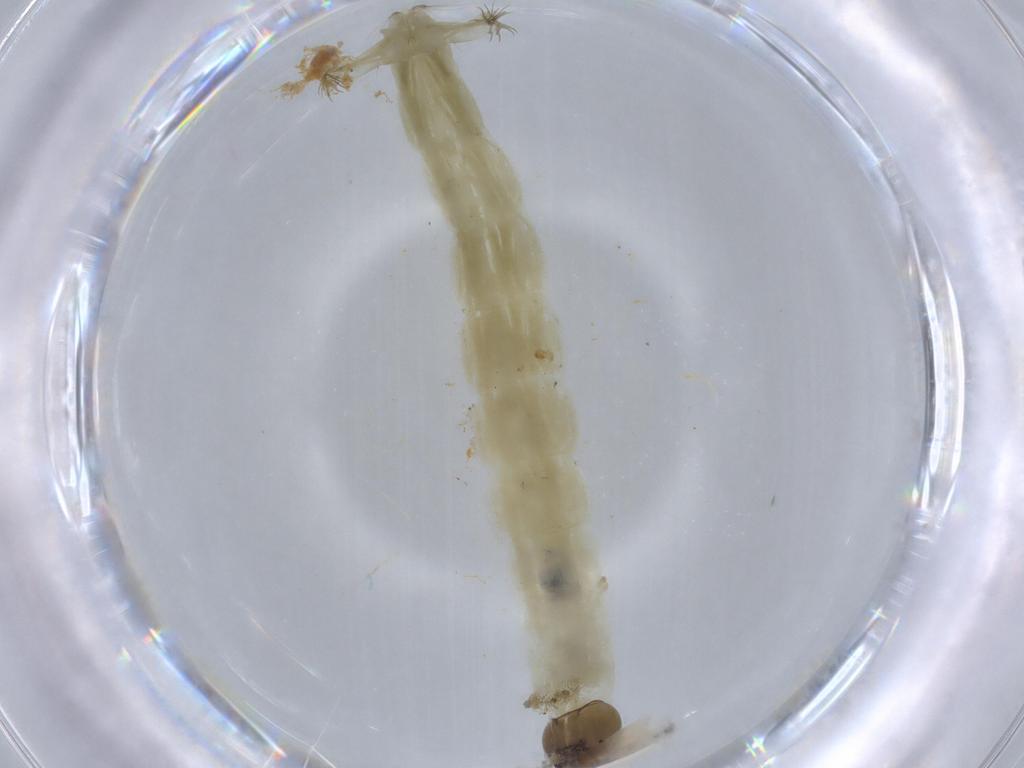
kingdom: Animalia
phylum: Arthropoda
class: Insecta
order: Diptera
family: Chironomidae
